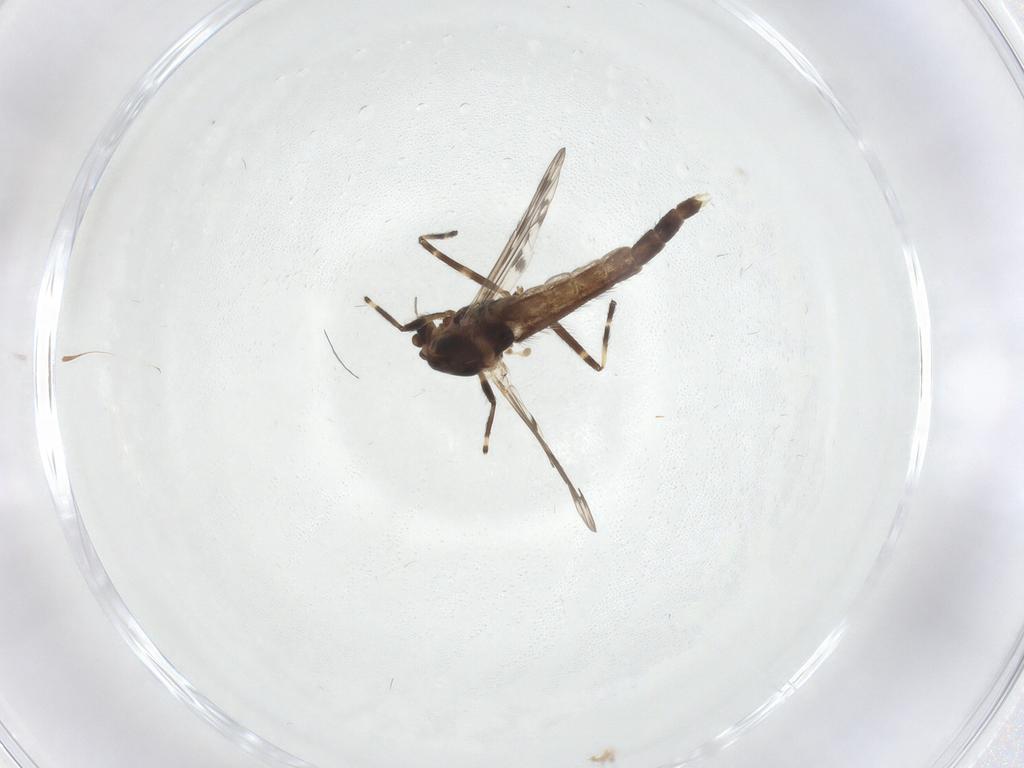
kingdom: Animalia
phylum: Arthropoda
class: Insecta
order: Diptera
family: Chironomidae
